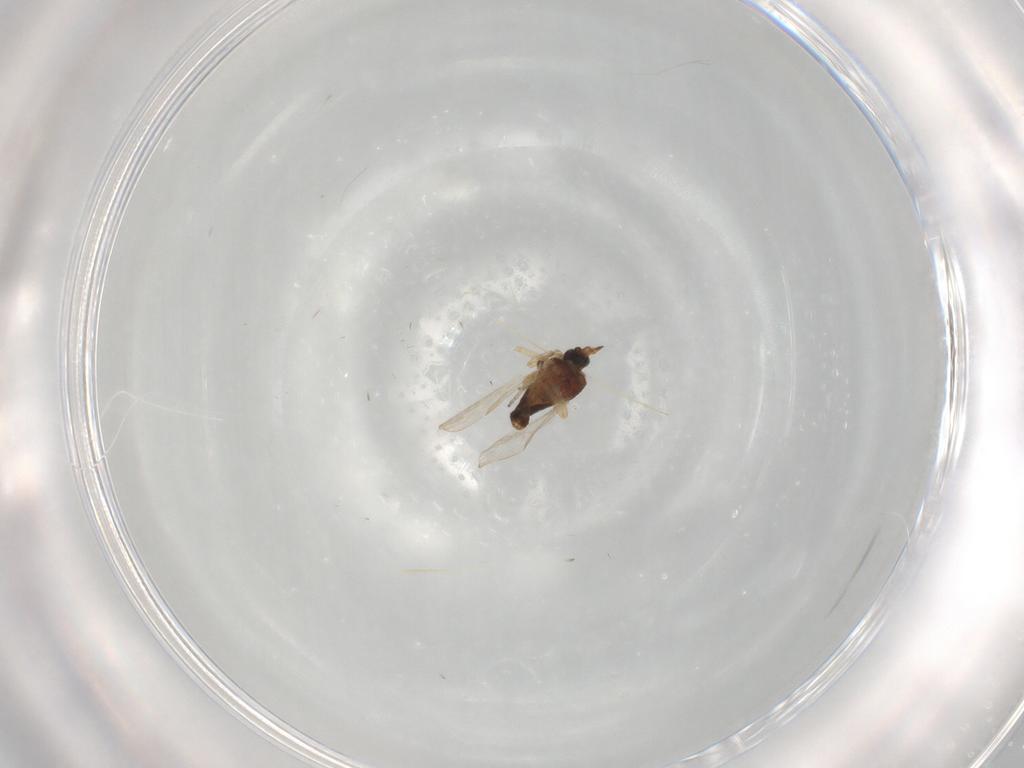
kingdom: Animalia
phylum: Arthropoda
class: Insecta
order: Diptera
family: Ceratopogonidae
